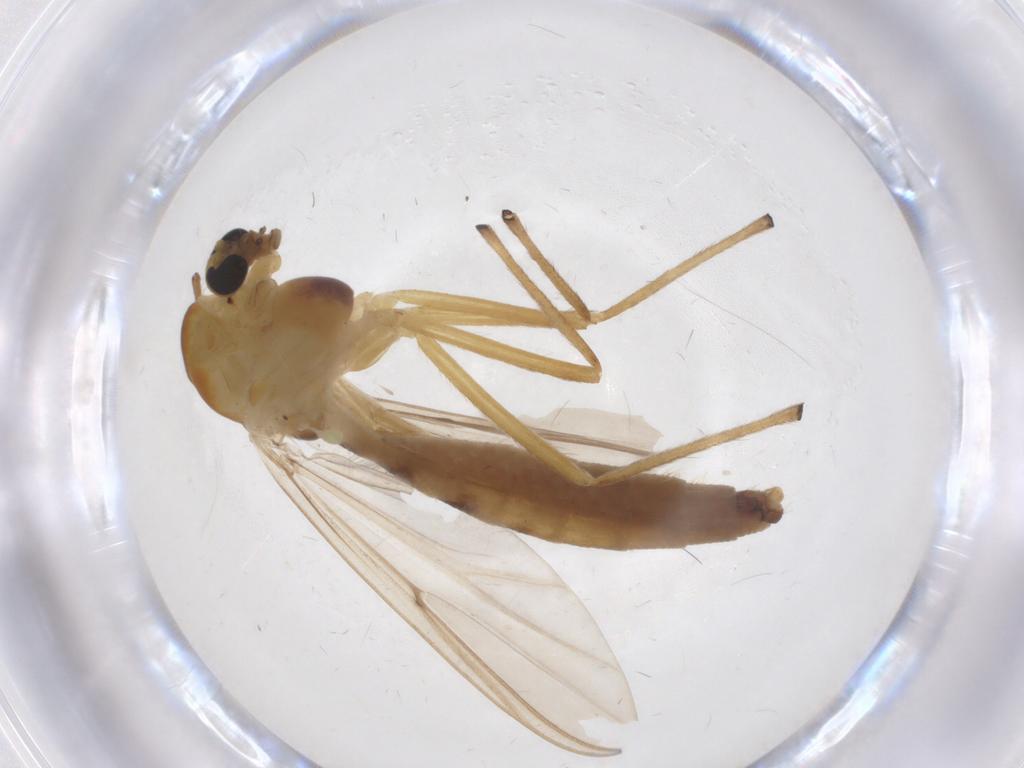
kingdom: Animalia
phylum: Arthropoda
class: Insecta
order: Diptera
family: Chironomidae
